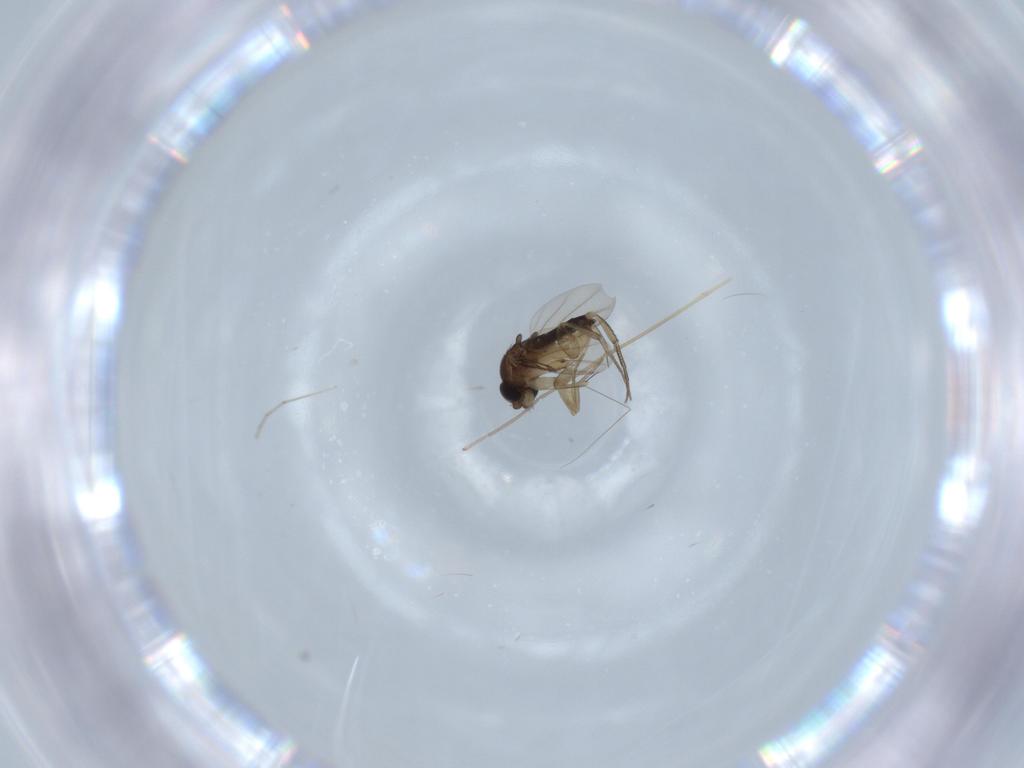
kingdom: Animalia
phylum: Arthropoda
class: Insecta
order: Diptera
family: Phoridae
